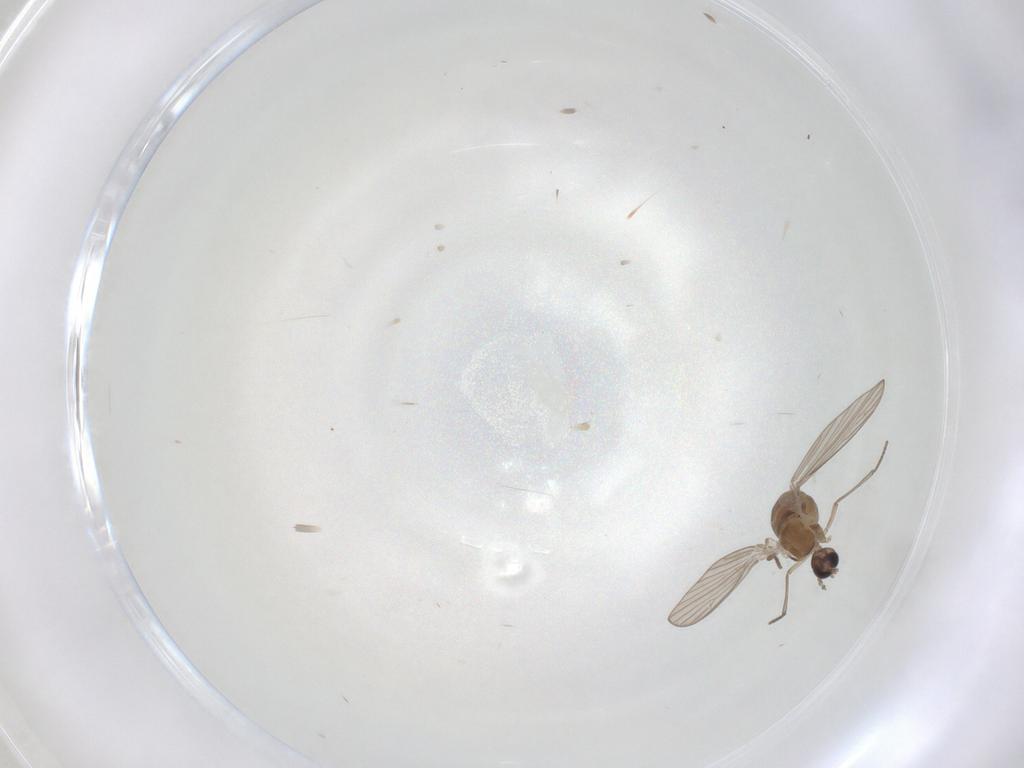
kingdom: Animalia
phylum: Arthropoda
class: Insecta
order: Diptera
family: Psychodidae
